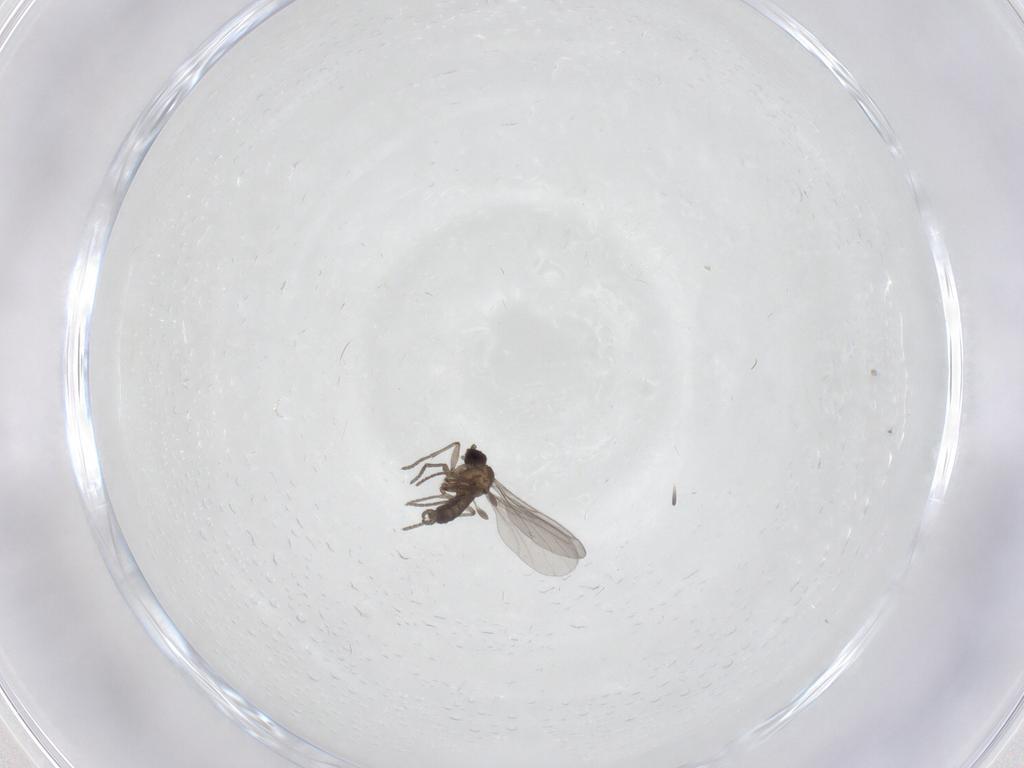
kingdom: Animalia
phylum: Arthropoda
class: Insecta
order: Diptera
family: Sciaridae
